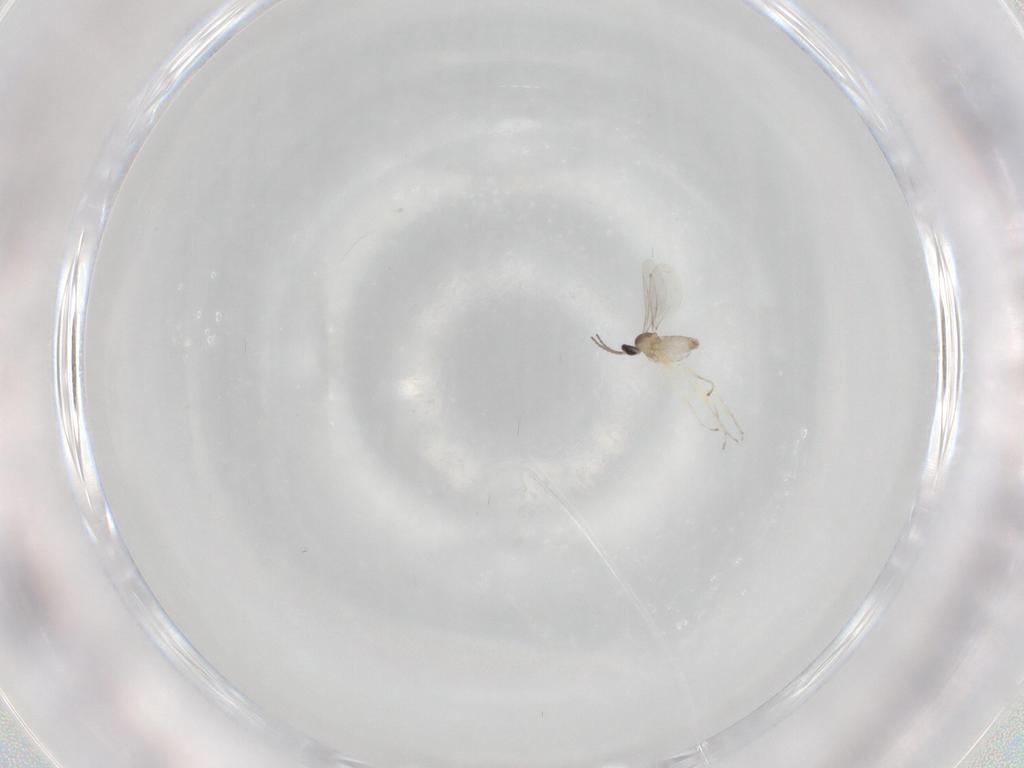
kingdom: Animalia
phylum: Arthropoda
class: Insecta
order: Diptera
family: Cecidomyiidae
